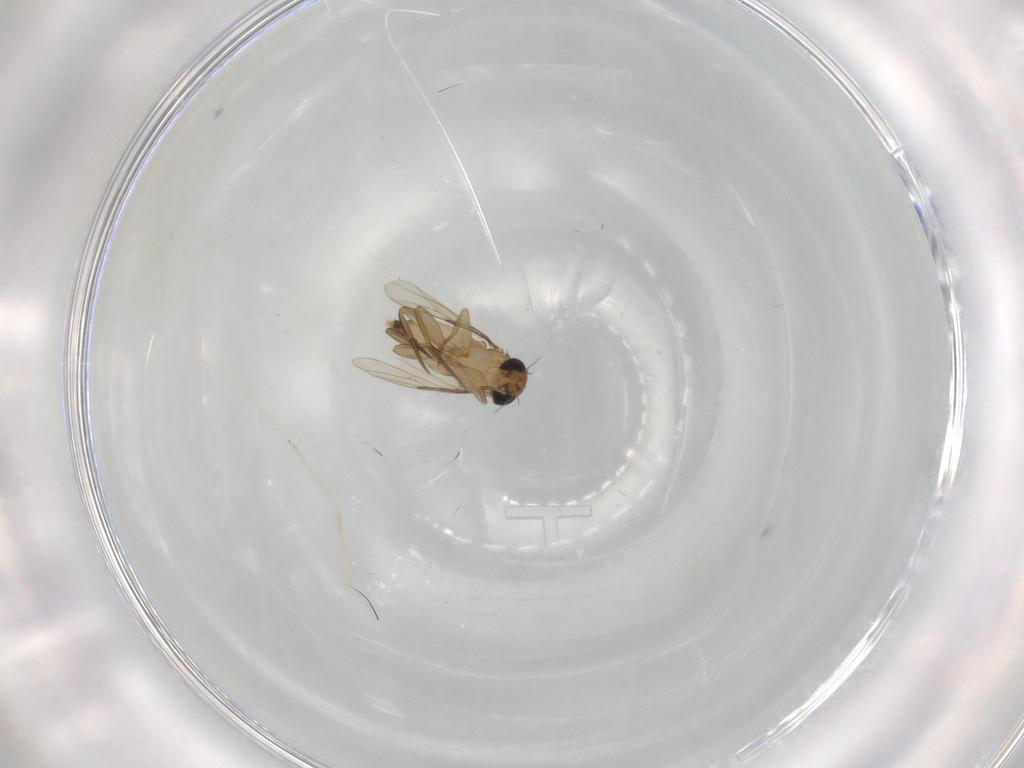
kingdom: Animalia
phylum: Arthropoda
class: Insecta
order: Diptera
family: Phoridae
